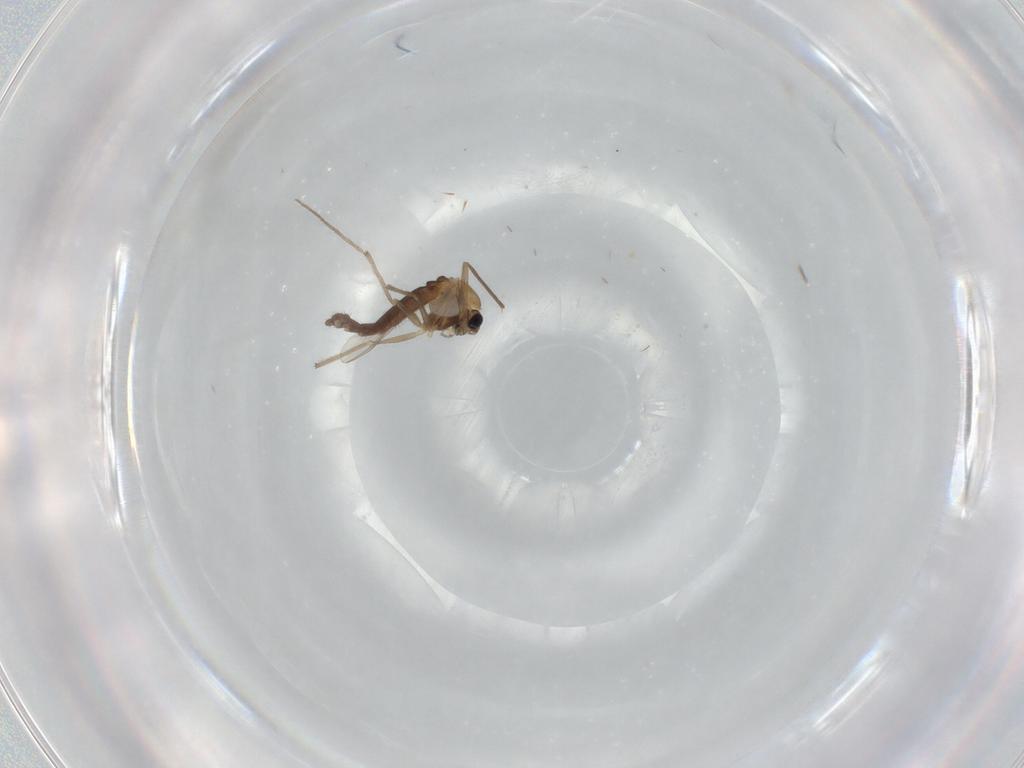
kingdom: Animalia
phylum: Arthropoda
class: Insecta
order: Diptera
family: Chironomidae
